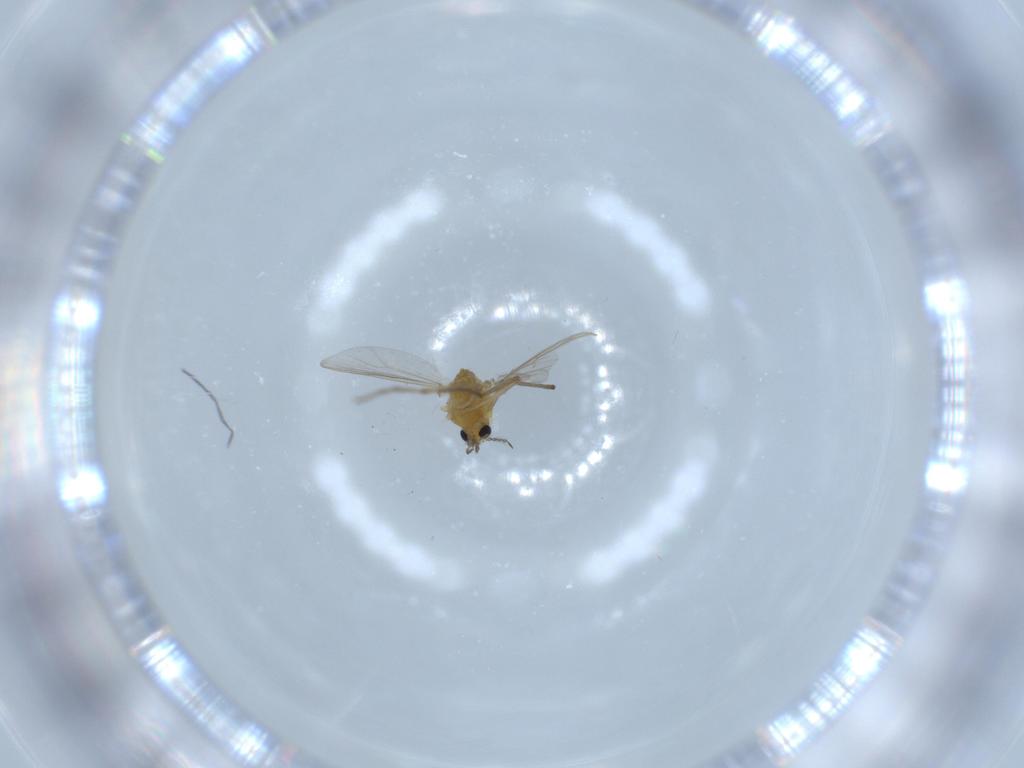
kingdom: Animalia
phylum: Arthropoda
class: Insecta
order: Diptera
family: Chironomidae
